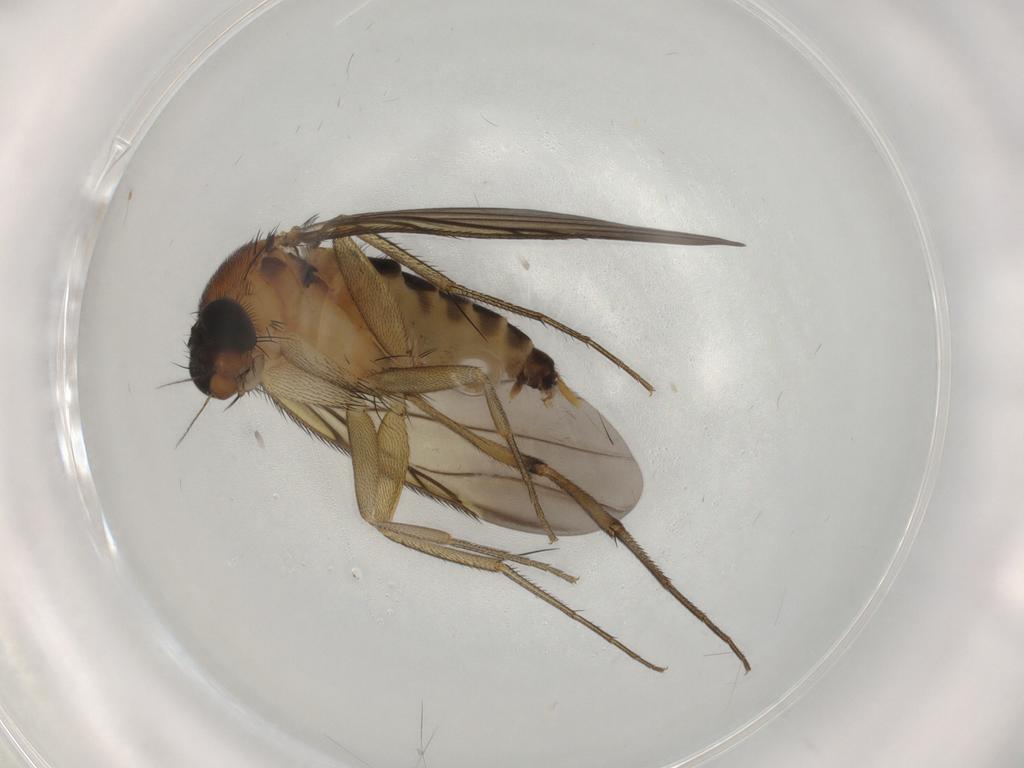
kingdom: Animalia
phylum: Arthropoda
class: Insecta
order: Diptera
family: Phoridae
